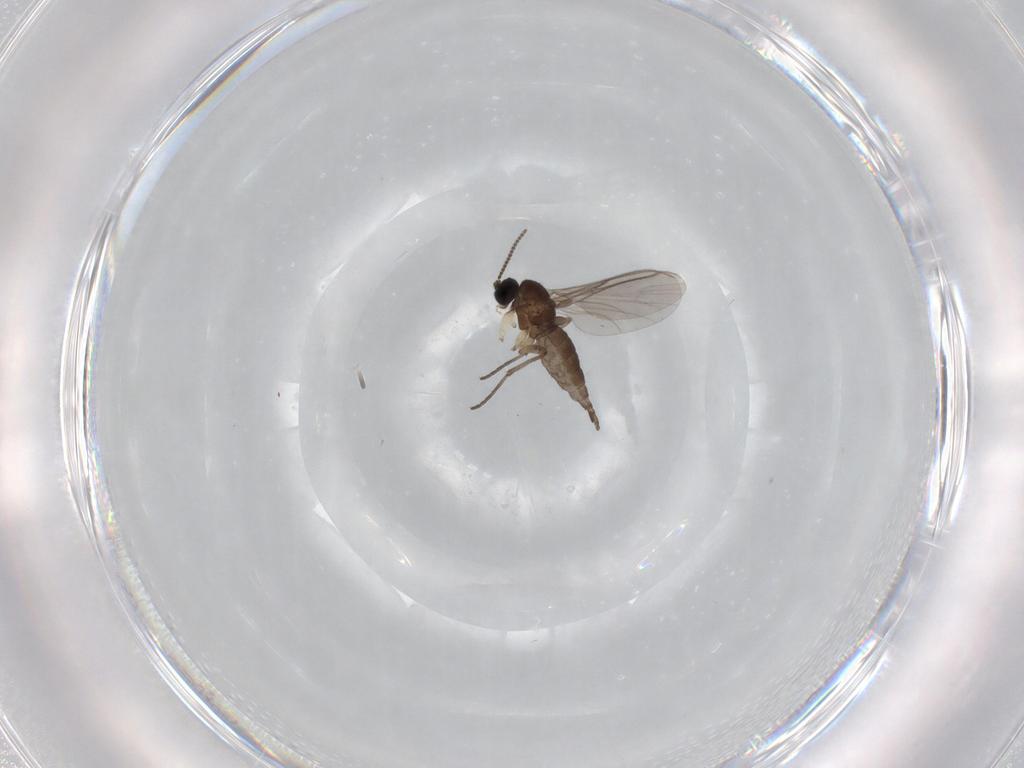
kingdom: Animalia
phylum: Arthropoda
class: Insecta
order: Diptera
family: Sciaridae
